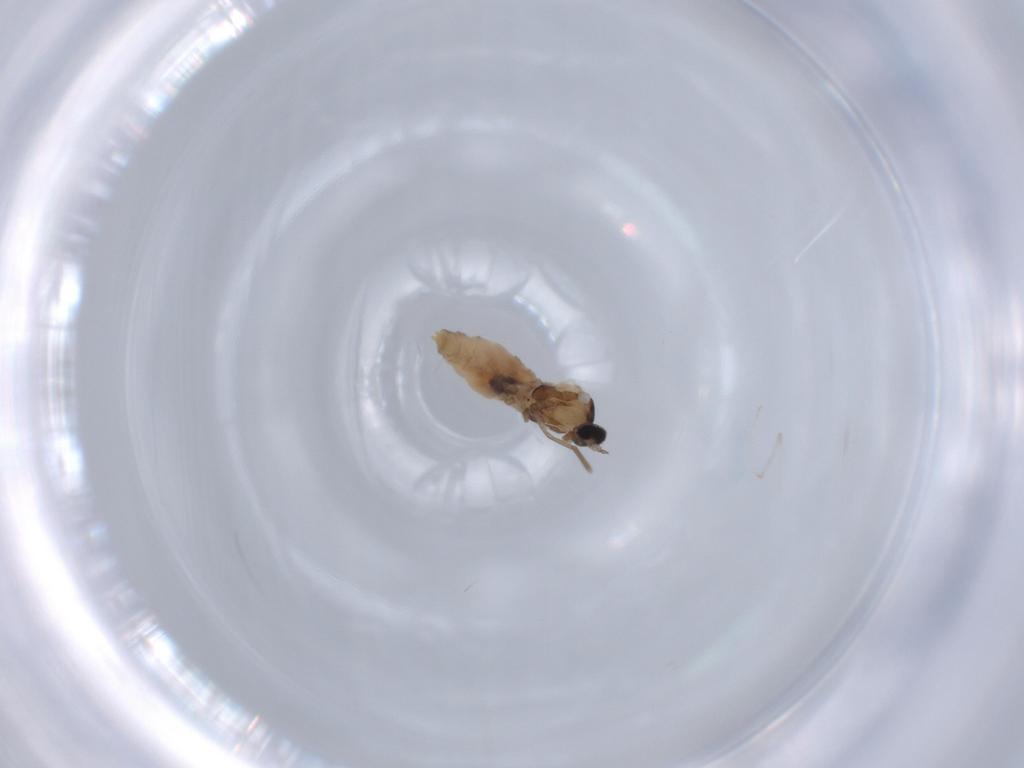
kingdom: Animalia
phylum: Arthropoda
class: Insecta
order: Diptera
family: Anthomyiidae
